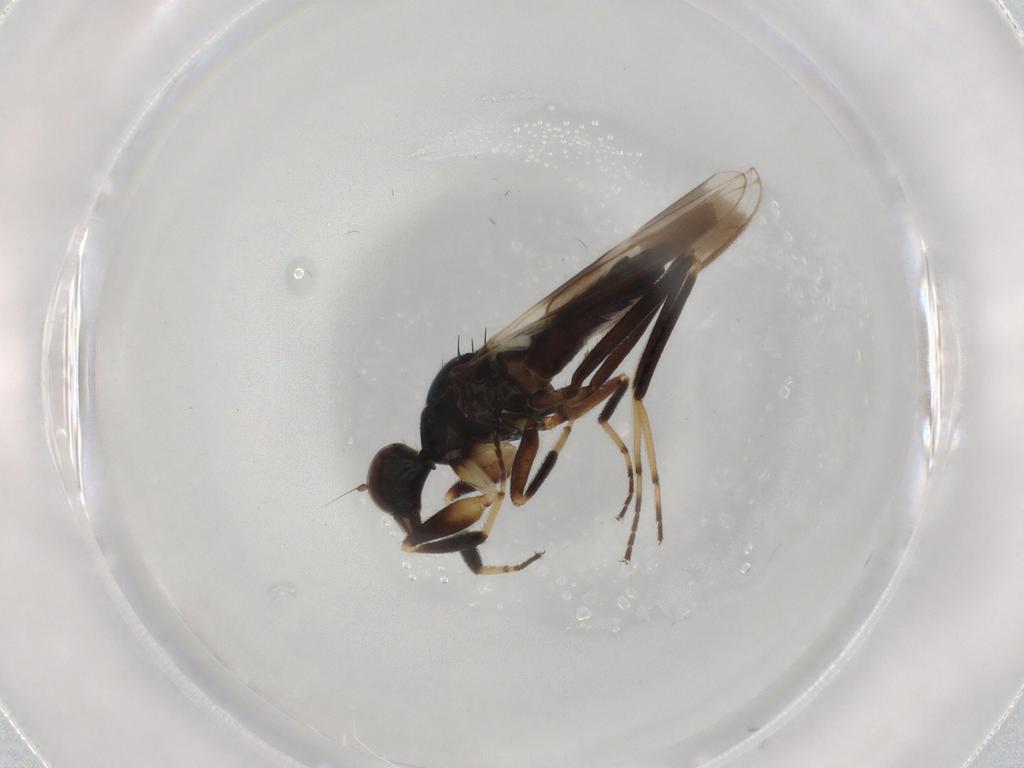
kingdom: Animalia
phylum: Arthropoda
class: Insecta
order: Diptera
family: Hybotidae
